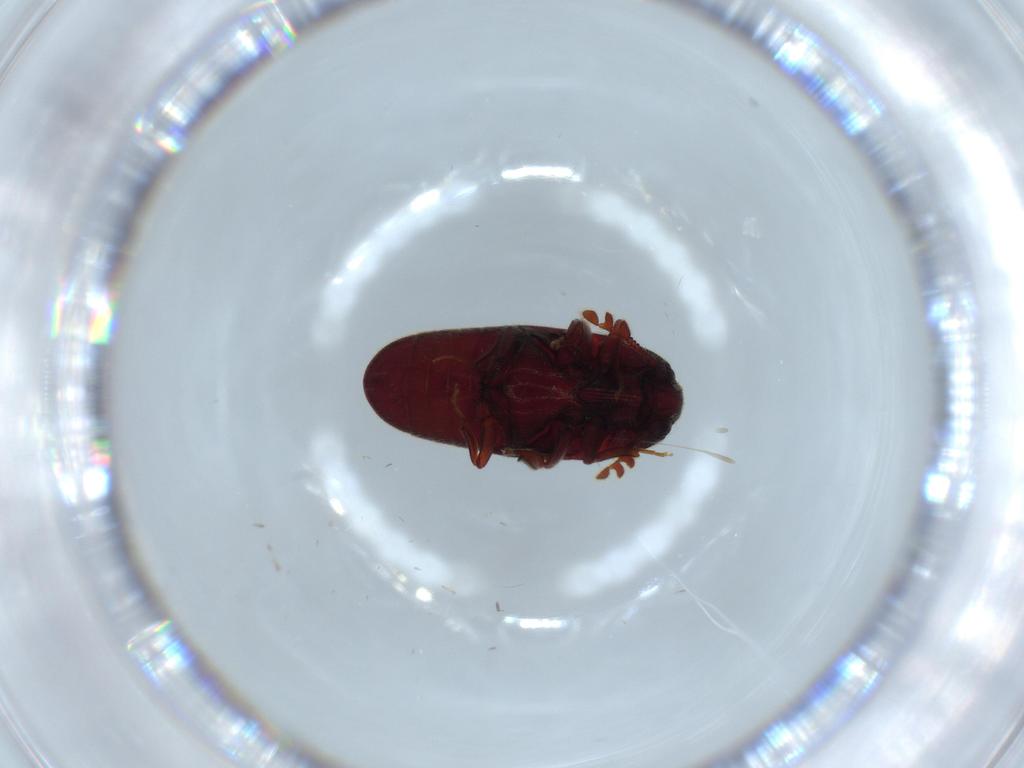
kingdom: Animalia
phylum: Arthropoda
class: Insecta
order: Coleoptera
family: Throscidae
